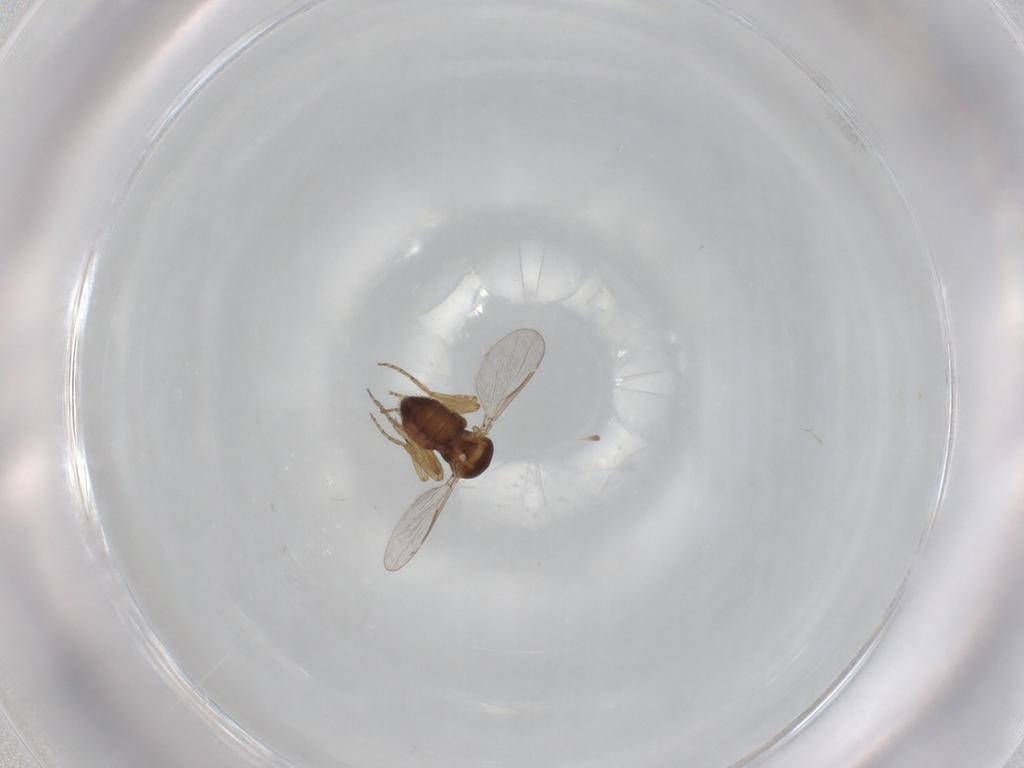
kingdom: Animalia
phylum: Arthropoda
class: Insecta
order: Diptera
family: Ceratopogonidae
